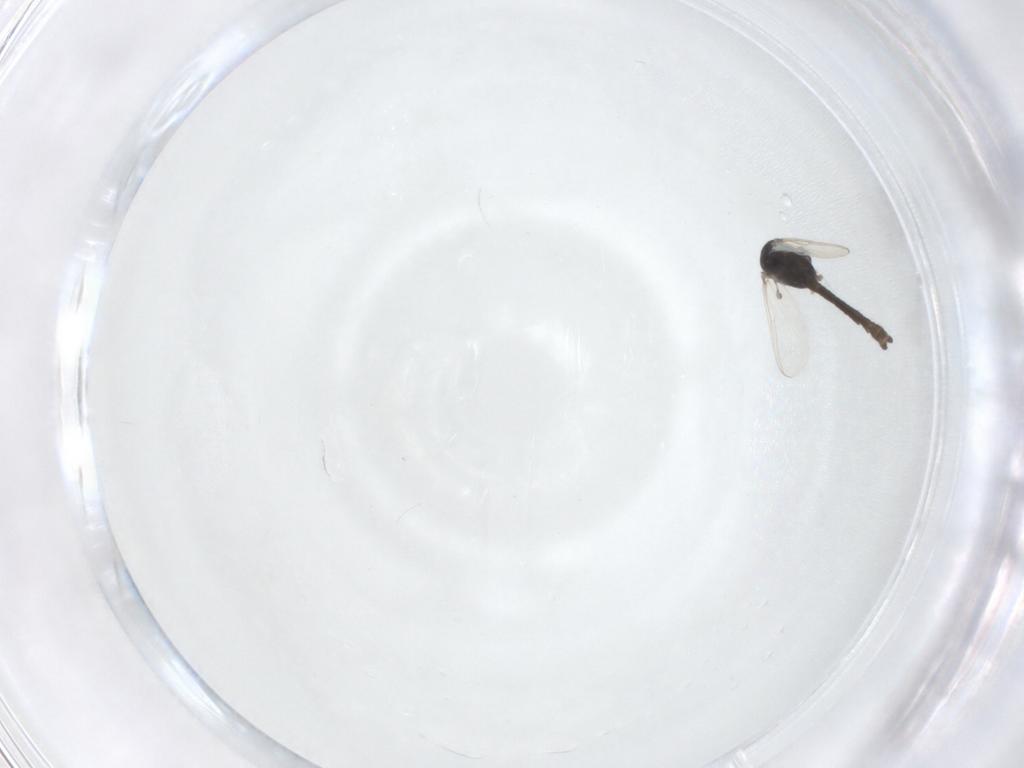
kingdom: Animalia
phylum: Arthropoda
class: Insecta
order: Diptera
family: Chironomidae
